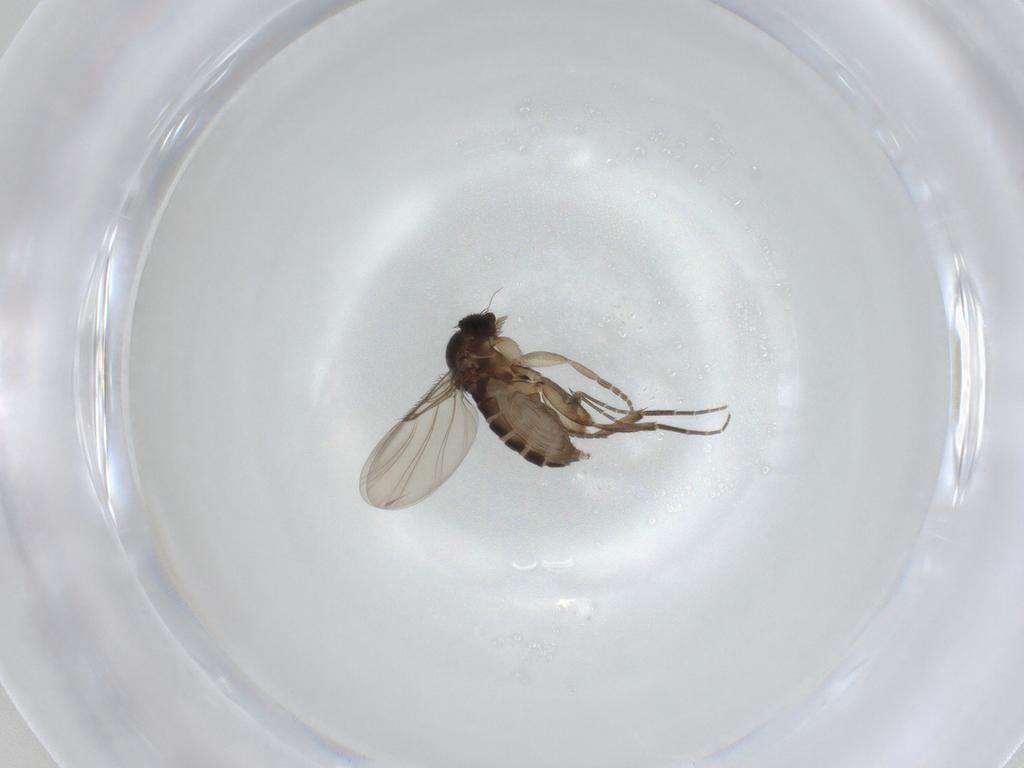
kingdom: Animalia
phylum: Arthropoda
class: Insecta
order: Diptera
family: Phoridae
